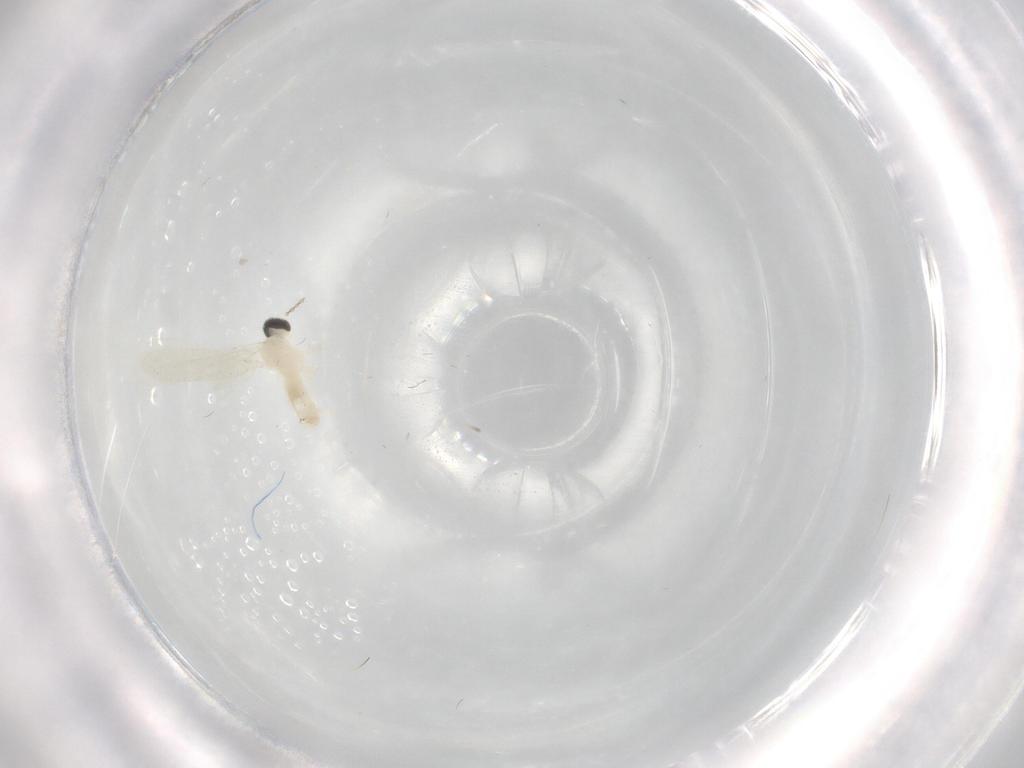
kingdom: Animalia
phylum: Arthropoda
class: Insecta
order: Diptera
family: Cecidomyiidae
